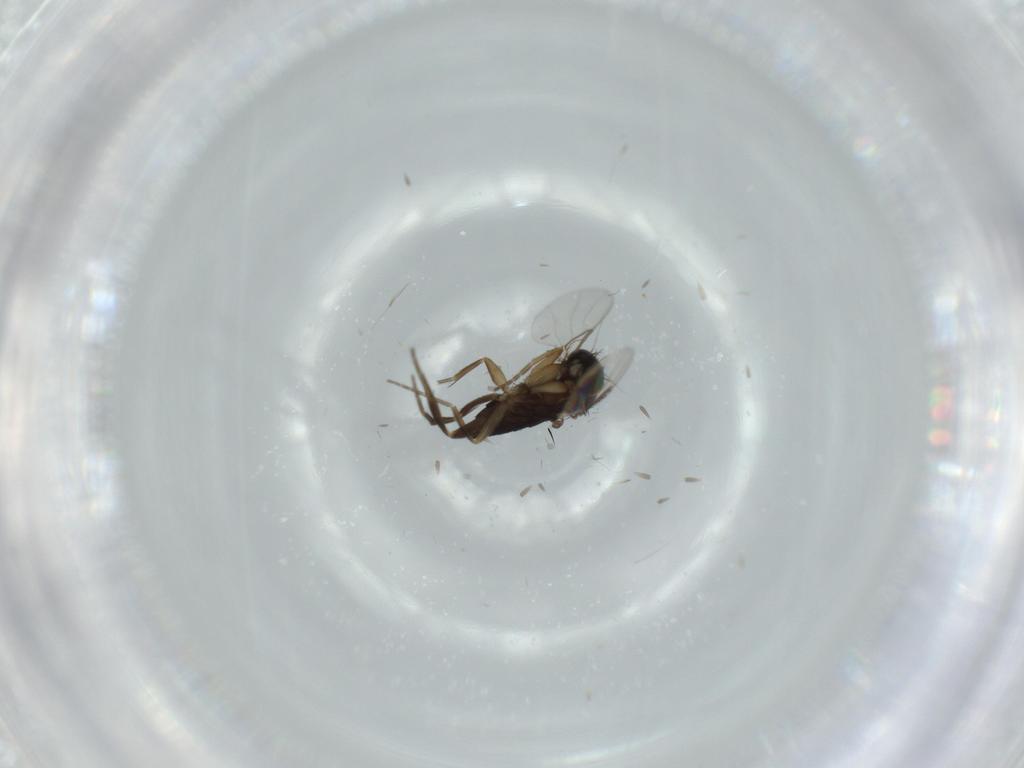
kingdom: Animalia
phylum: Arthropoda
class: Insecta
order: Diptera
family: Phoridae
